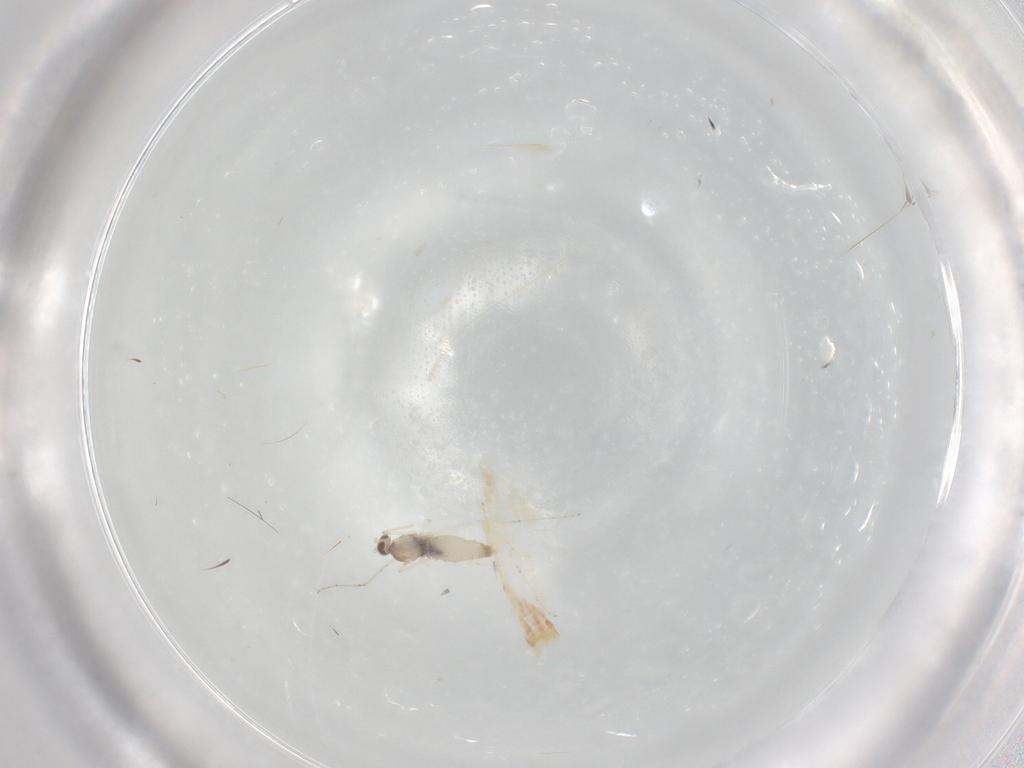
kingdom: Animalia
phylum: Arthropoda
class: Insecta
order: Diptera
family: Cecidomyiidae
